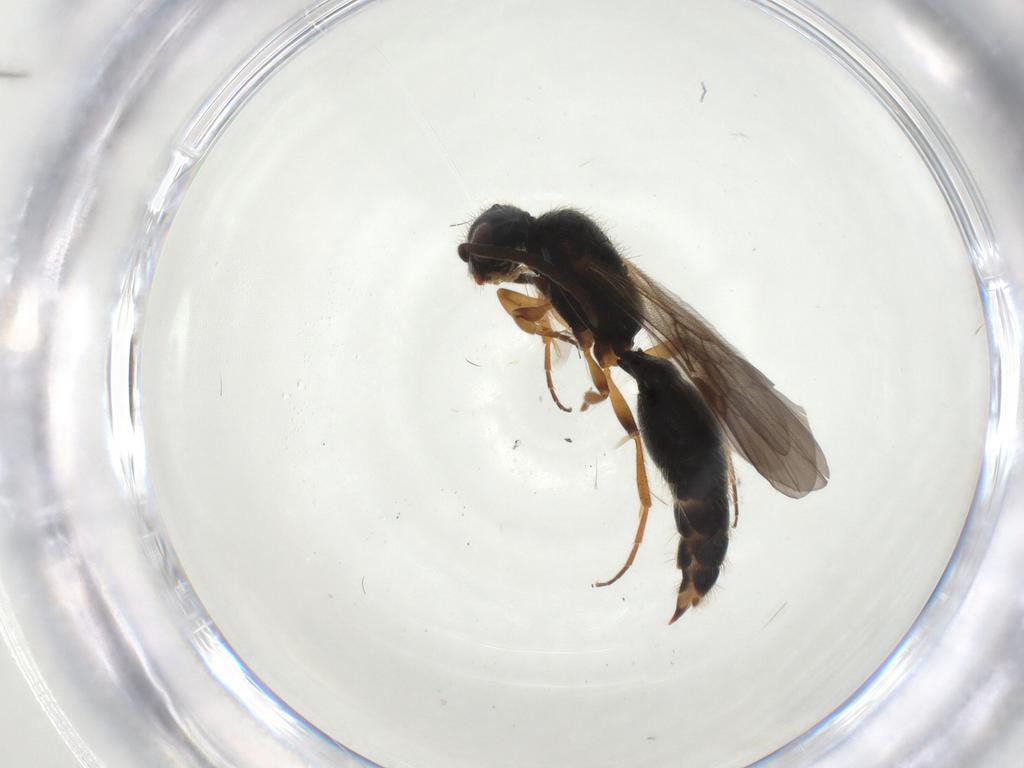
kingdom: Animalia
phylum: Arthropoda
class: Insecta
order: Hymenoptera
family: Mutillidae
